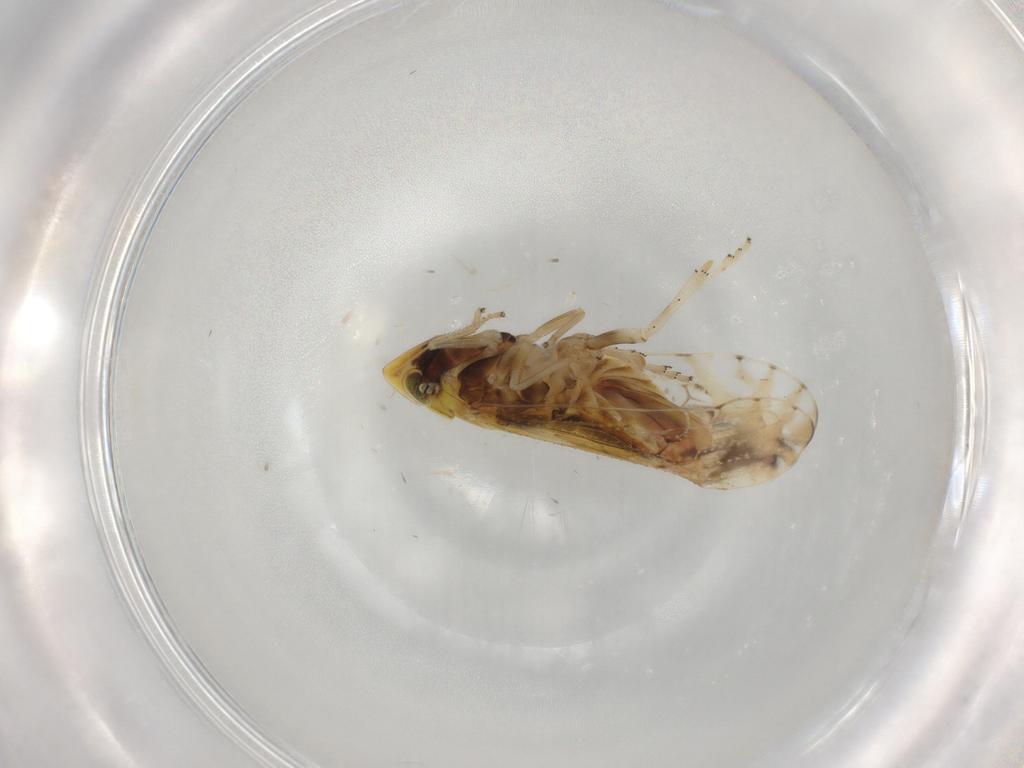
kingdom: Animalia
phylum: Arthropoda
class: Insecta
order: Hemiptera
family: Delphacidae
